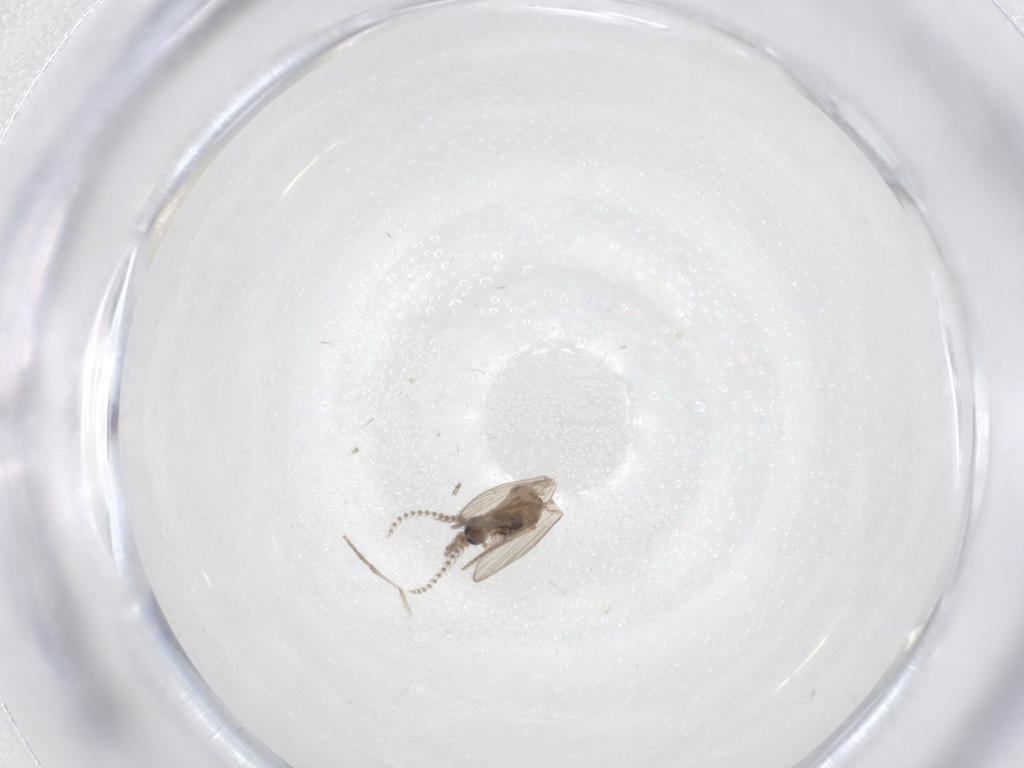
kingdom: Animalia
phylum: Arthropoda
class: Insecta
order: Diptera
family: Psychodidae
